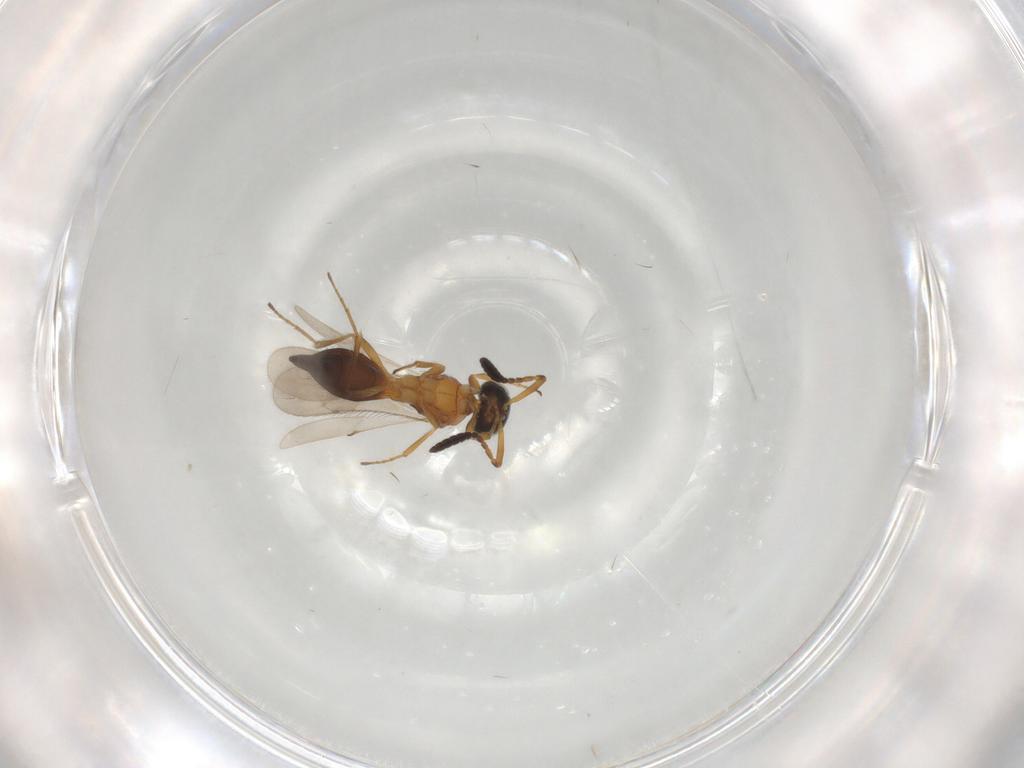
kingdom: Animalia
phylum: Arthropoda
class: Insecta
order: Hymenoptera
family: Scelionidae
